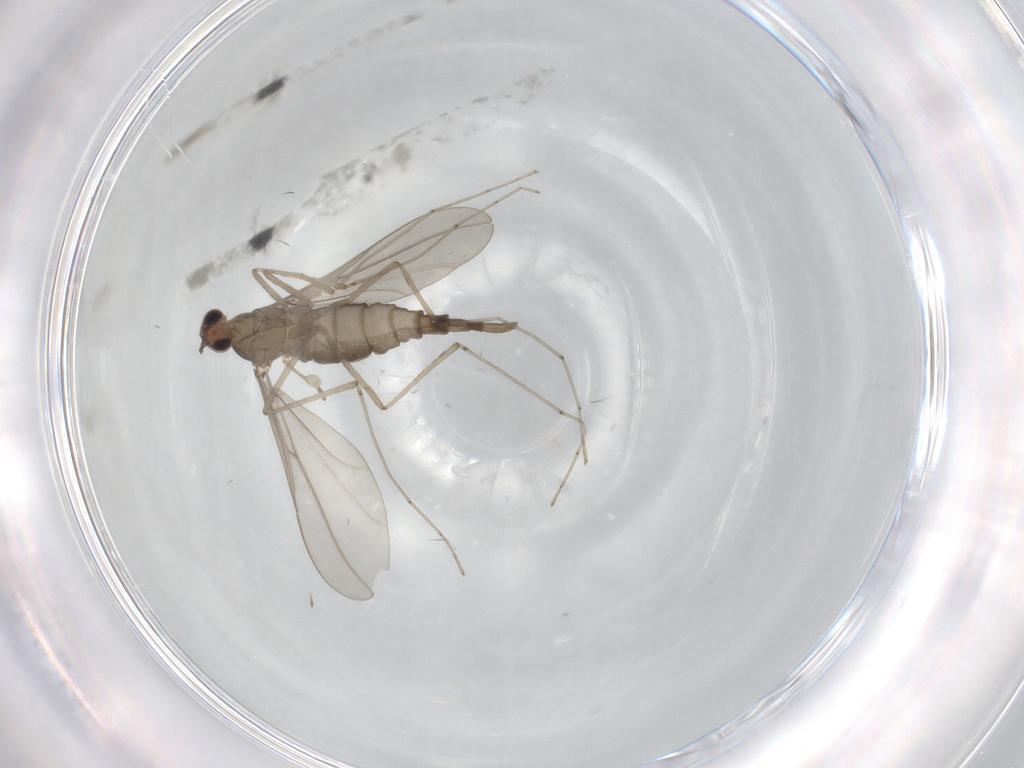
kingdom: Animalia
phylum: Arthropoda
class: Insecta
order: Diptera
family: Cecidomyiidae
